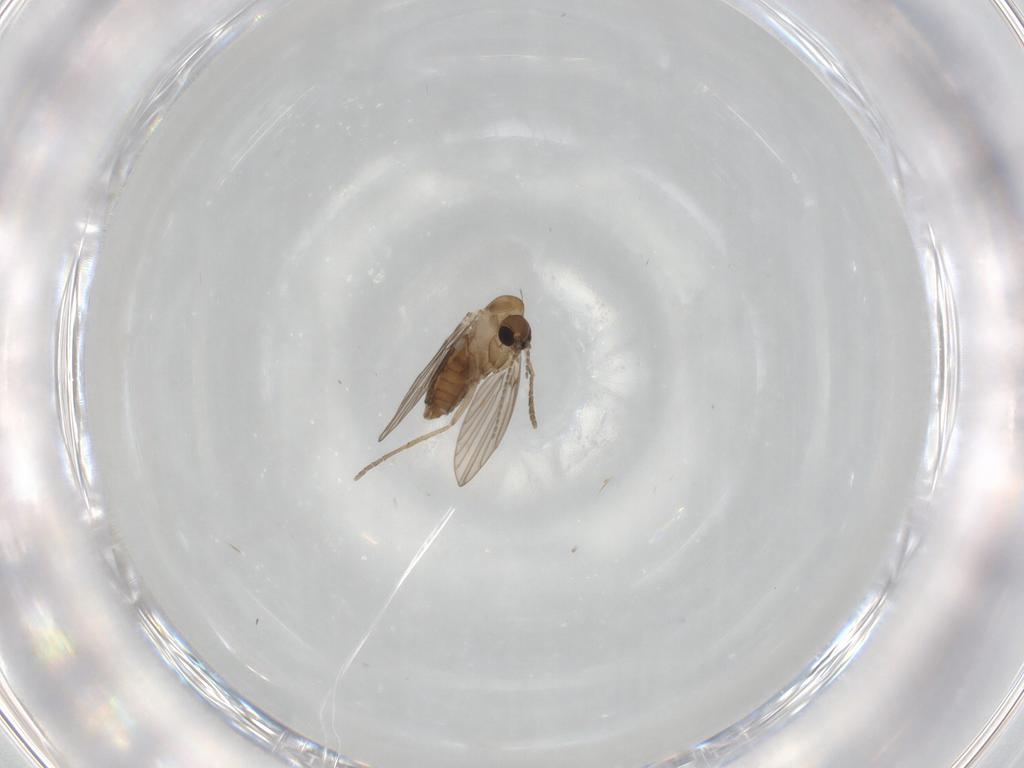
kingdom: Animalia
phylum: Arthropoda
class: Insecta
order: Diptera
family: Psychodidae
